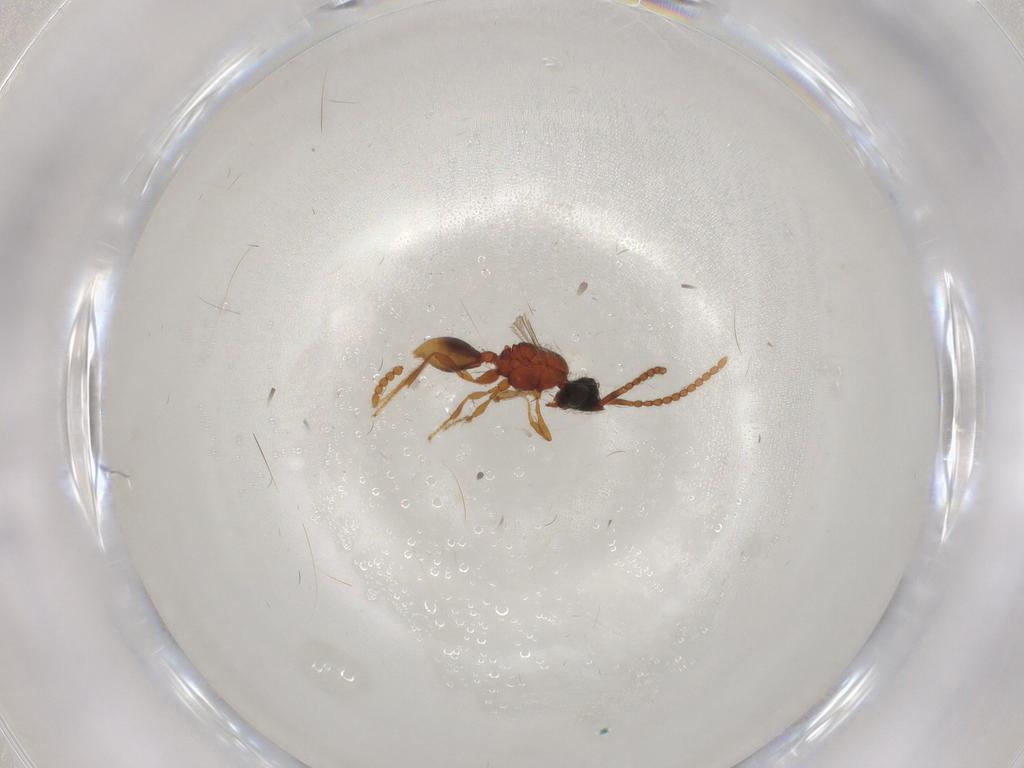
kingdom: Animalia
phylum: Arthropoda
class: Insecta
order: Hymenoptera
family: Diapriidae
